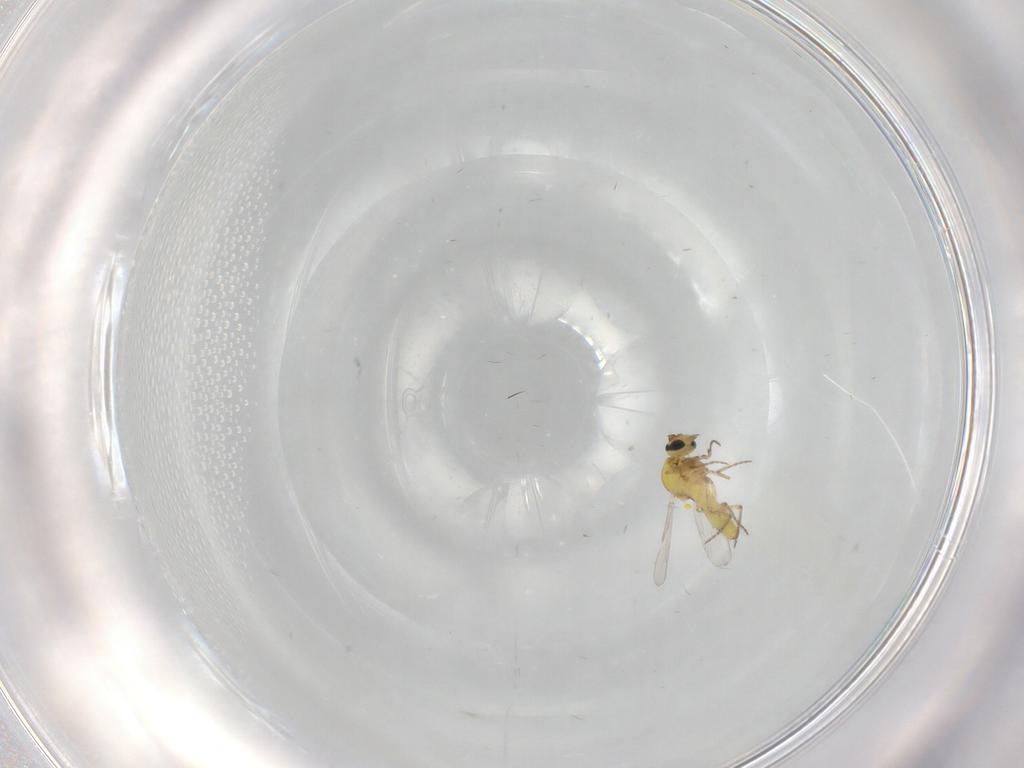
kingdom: Animalia
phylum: Arthropoda
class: Insecta
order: Diptera
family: Ceratopogonidae
